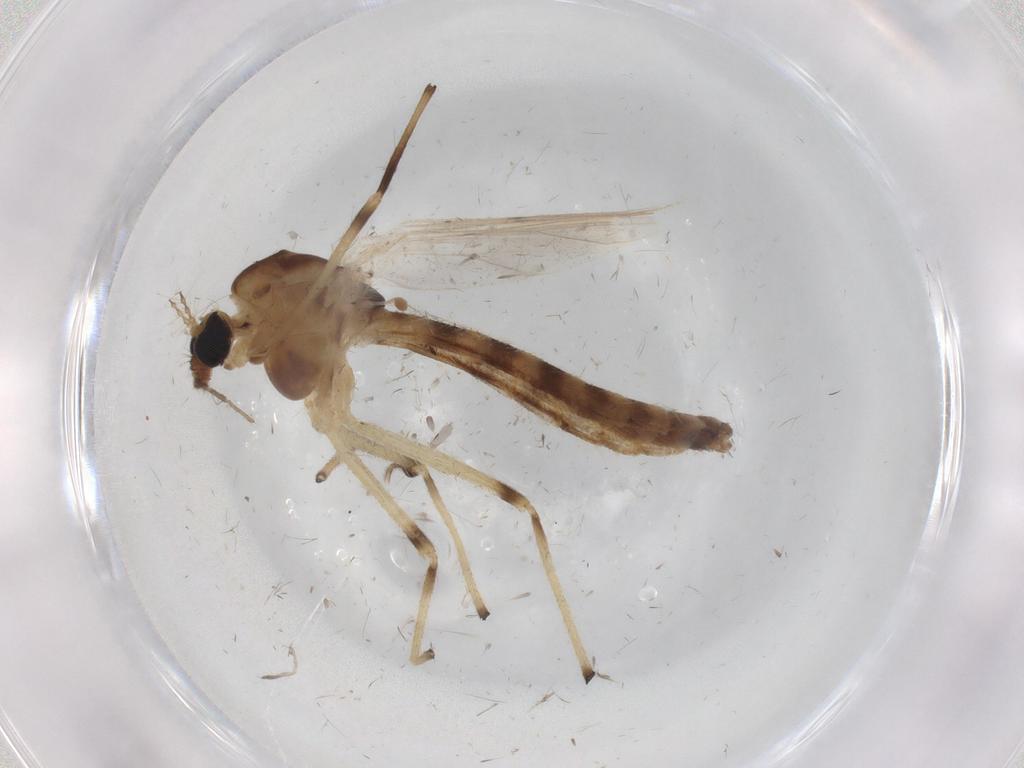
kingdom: Animalia
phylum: Arthropoda
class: Insecta
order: Diptera
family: Chironomidae
